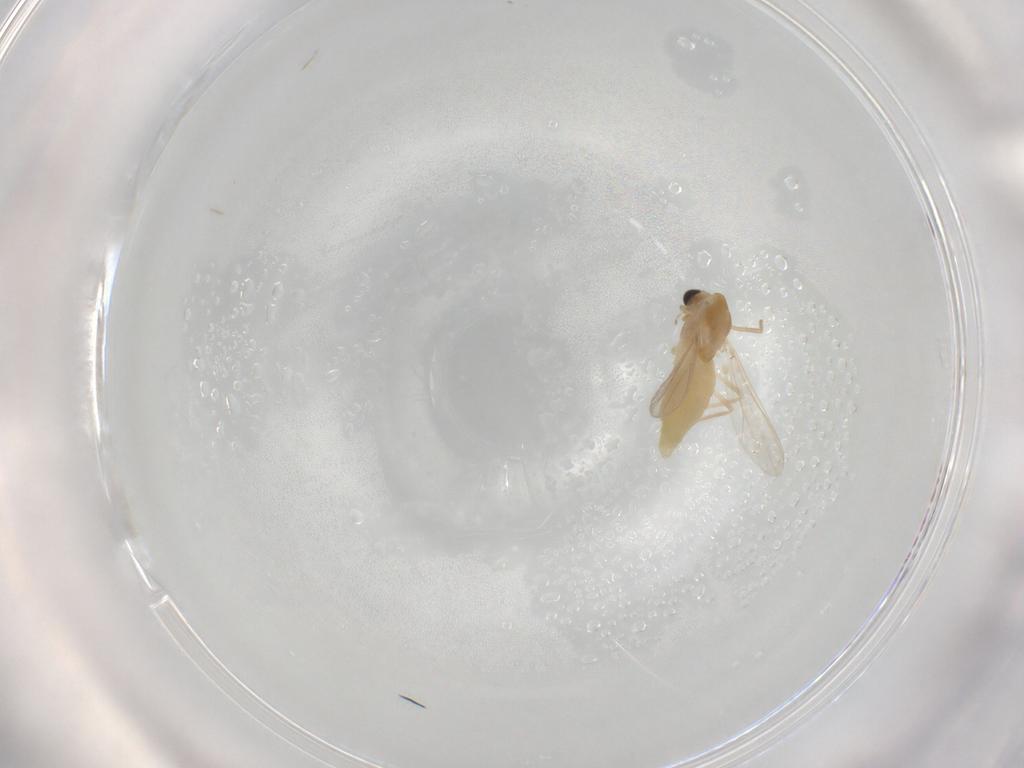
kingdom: Animalia
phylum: Arthropoda
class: Insecta
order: Diptera
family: Chironomidae
